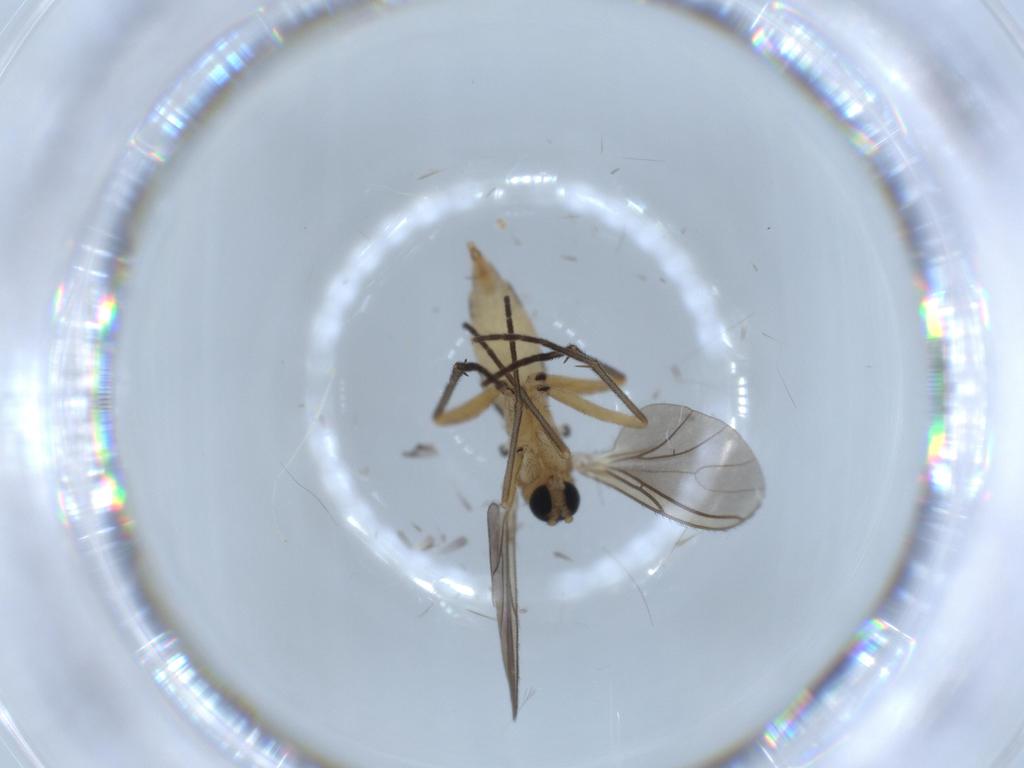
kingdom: Animalia
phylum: Arthropoda
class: Insecta
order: Diptera
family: Sciaridae
